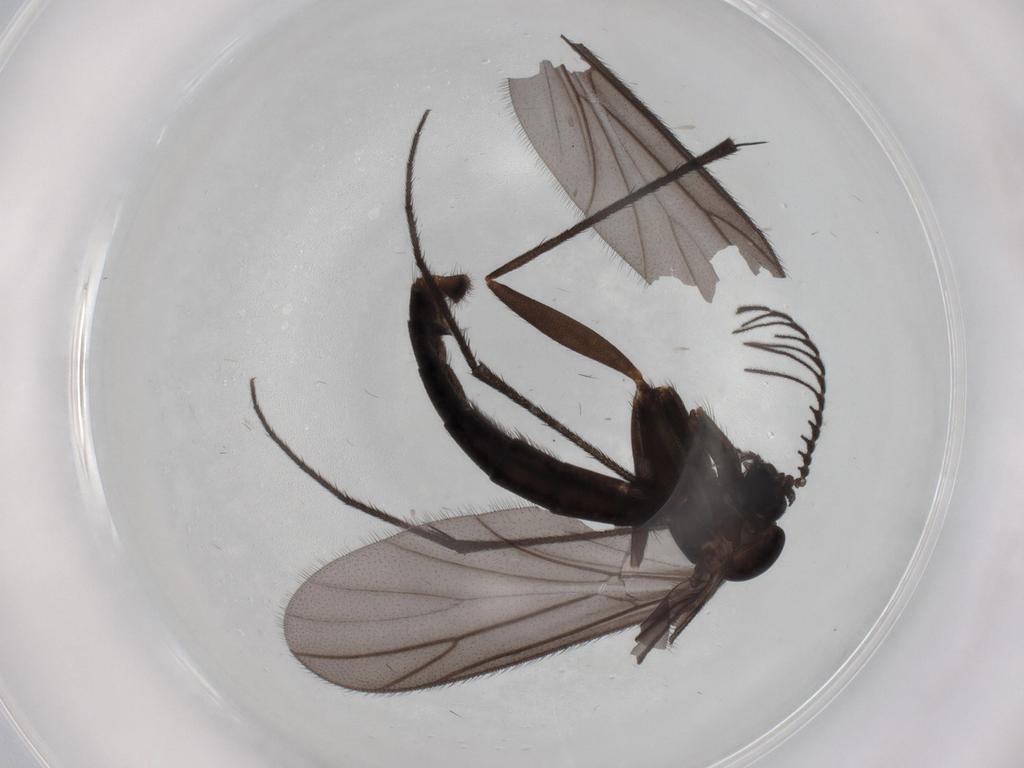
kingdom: Animalia
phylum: Arthropoda
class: Insecta
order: Diptera
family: Ditomyiidae
